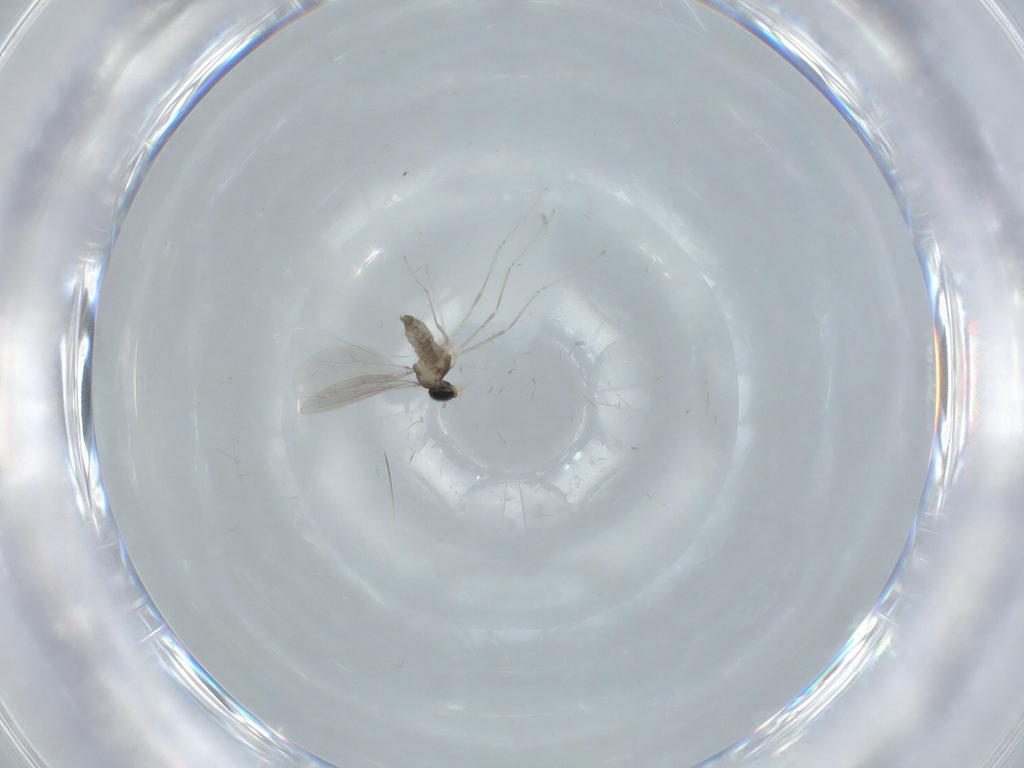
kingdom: Animalia
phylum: Arthropoda
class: Insecta
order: Diptera
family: Cecidomyiidae
